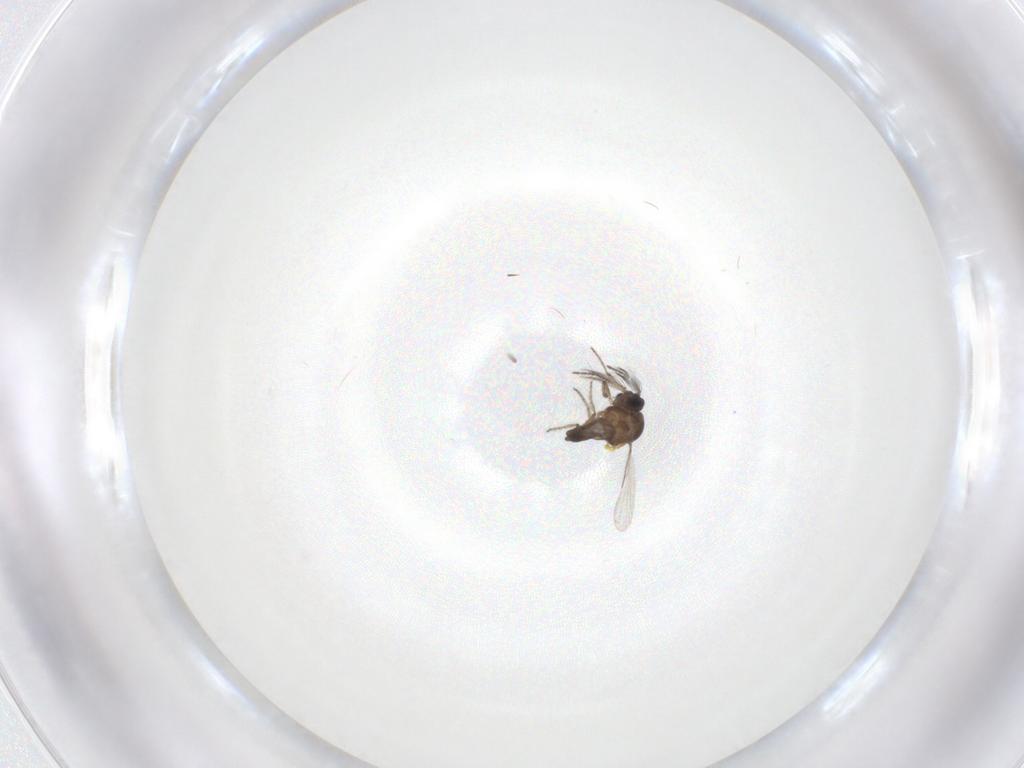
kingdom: Animalia
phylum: Arthropoda
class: Insecta
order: Diptera
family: Phoridae
